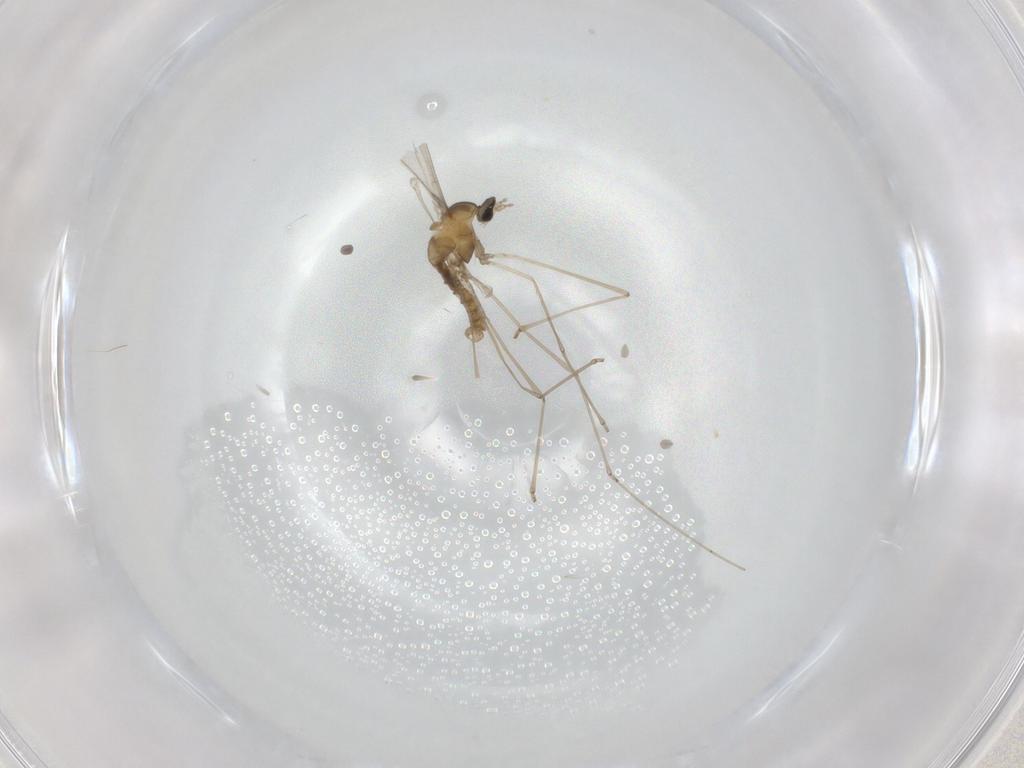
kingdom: Animalia
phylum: Arthropoda
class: Insecta
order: Diptera
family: Cecidomyiidae
